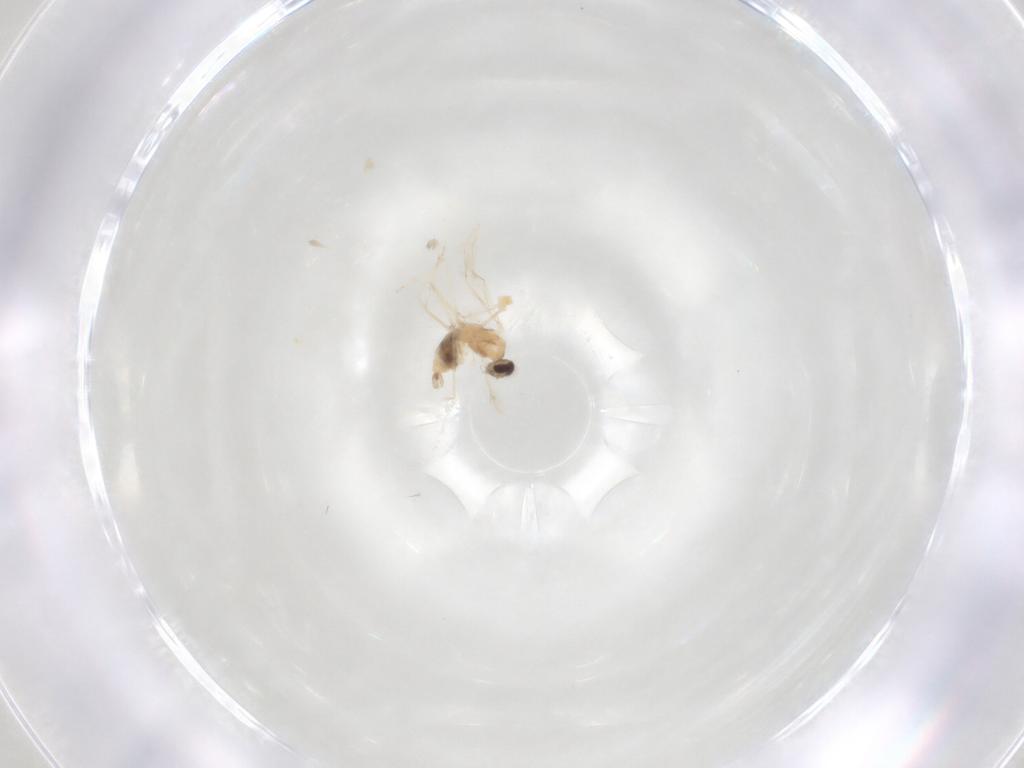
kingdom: Animalia
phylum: Arthropoda
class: Insecta
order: Diptera
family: Cecidomyiidae
